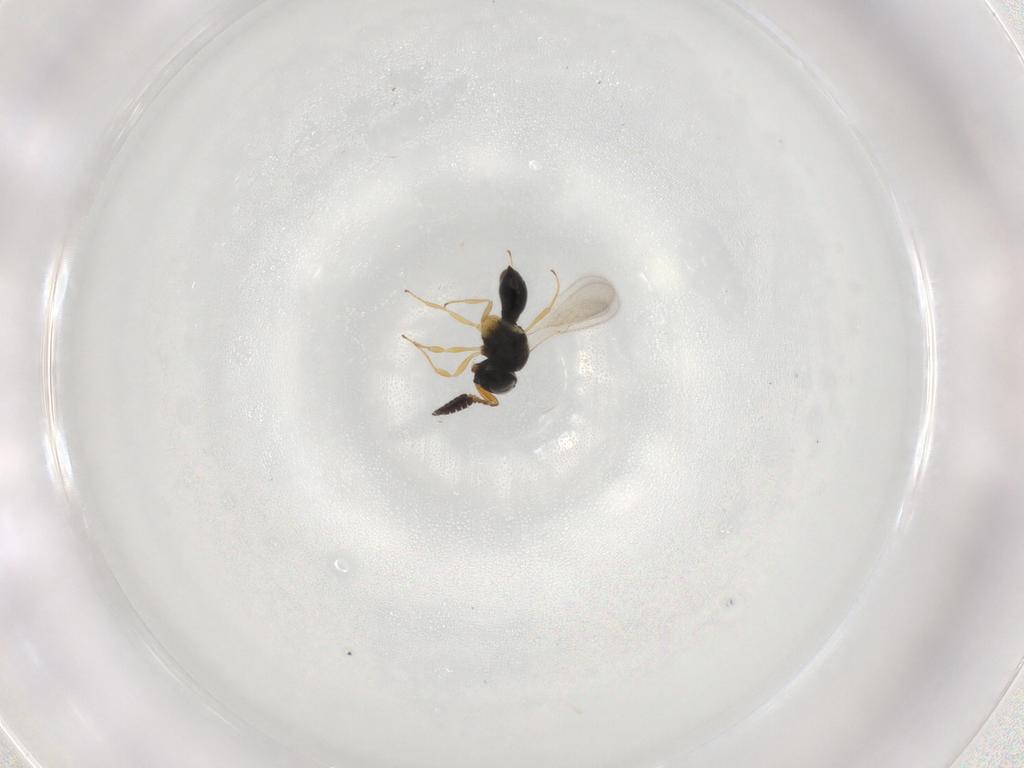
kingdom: Animalia
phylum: Arthropoda
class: Insecta
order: Hymenoptera
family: Scelionidae
